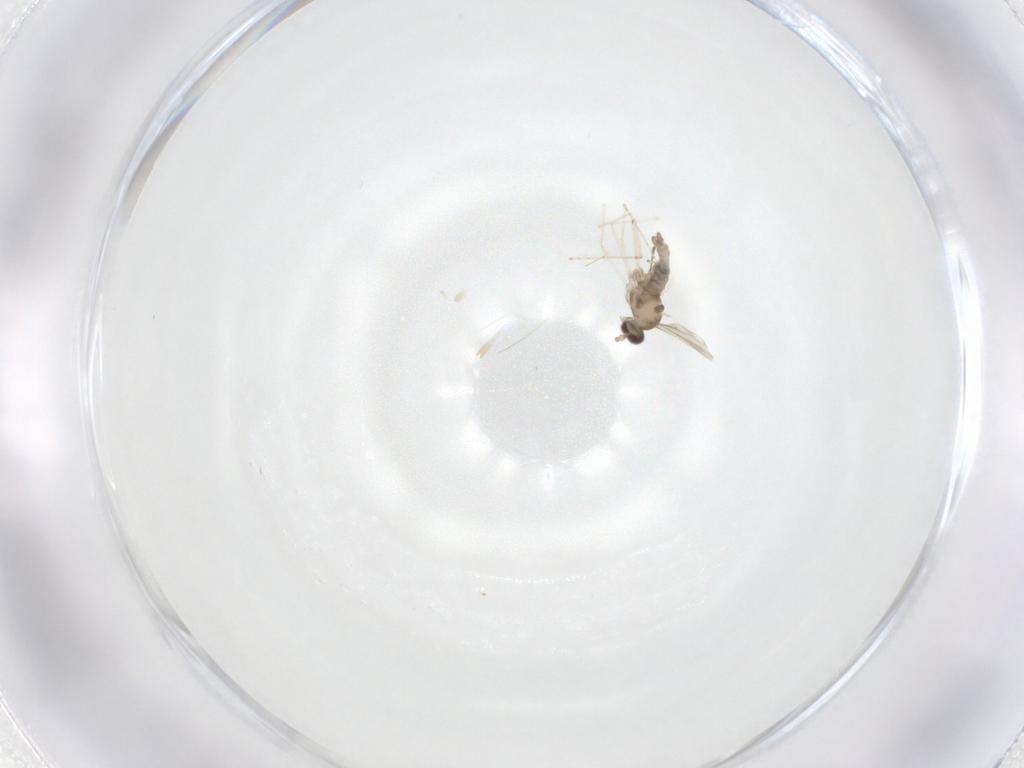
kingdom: Animalia
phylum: Arthropoda
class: Insecta
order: Diptera
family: Cecidomyiidae
